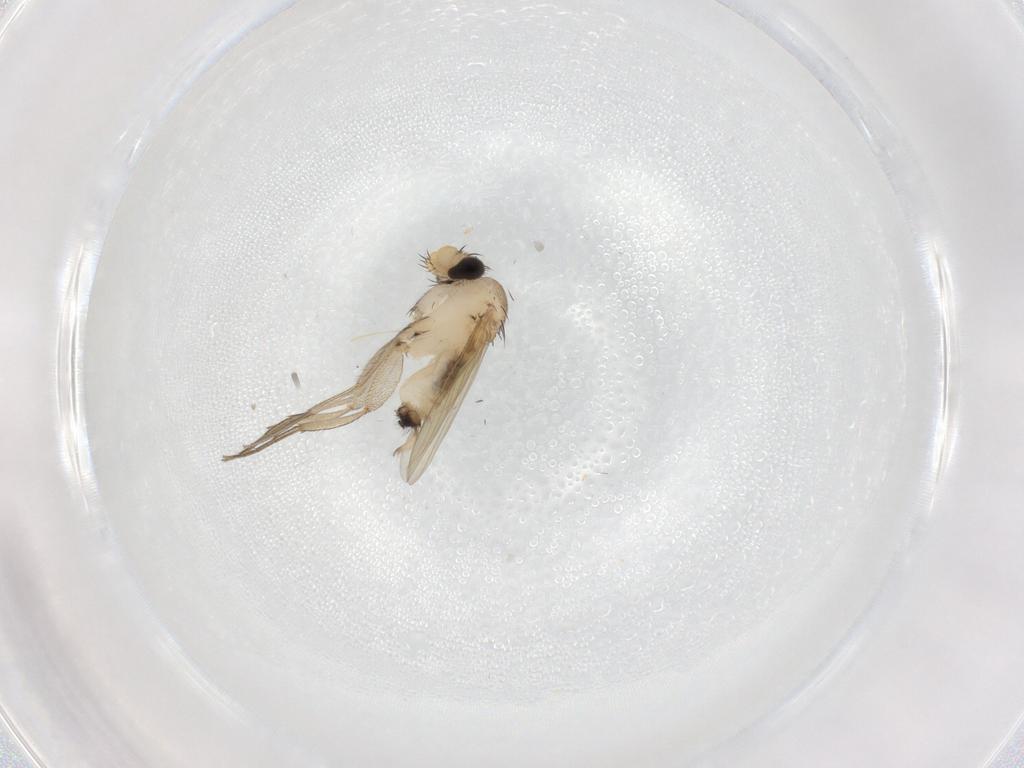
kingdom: Animalia
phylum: Arthropoda
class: Insecta
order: Diptera
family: Phoridae
